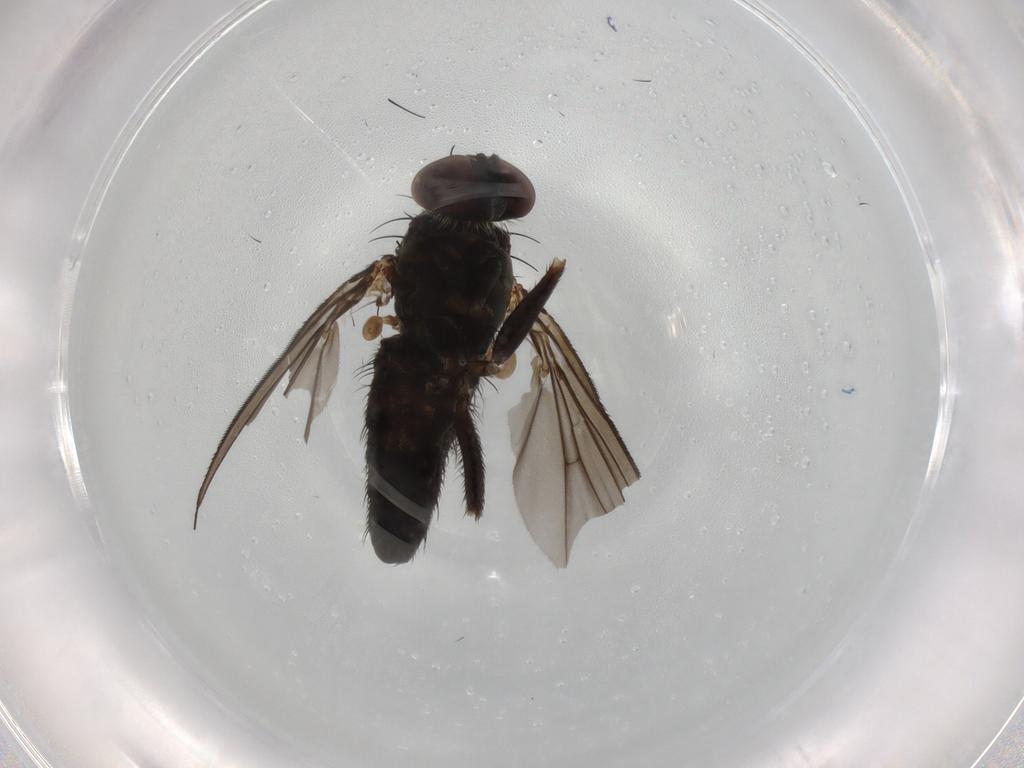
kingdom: Animalia
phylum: Arthropoda
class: Insecta
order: Diptera
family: Dolichopodidae
